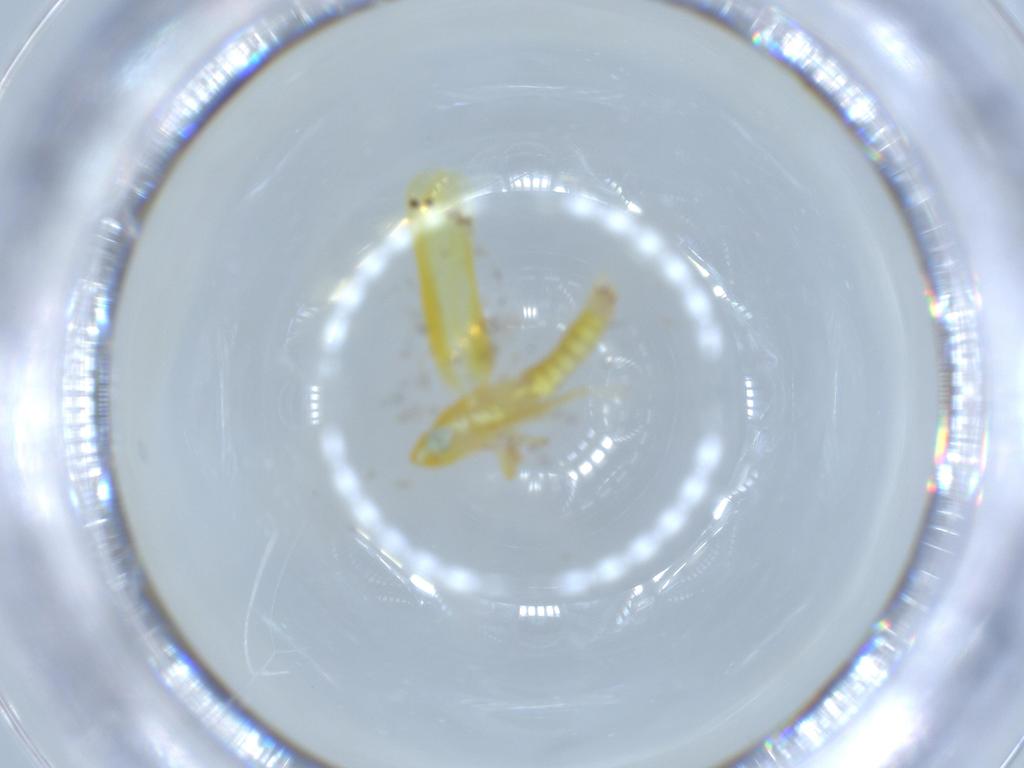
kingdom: Animalia
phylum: Arthropoda
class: Insecta
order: Hemiptera
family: Cicadellidae
